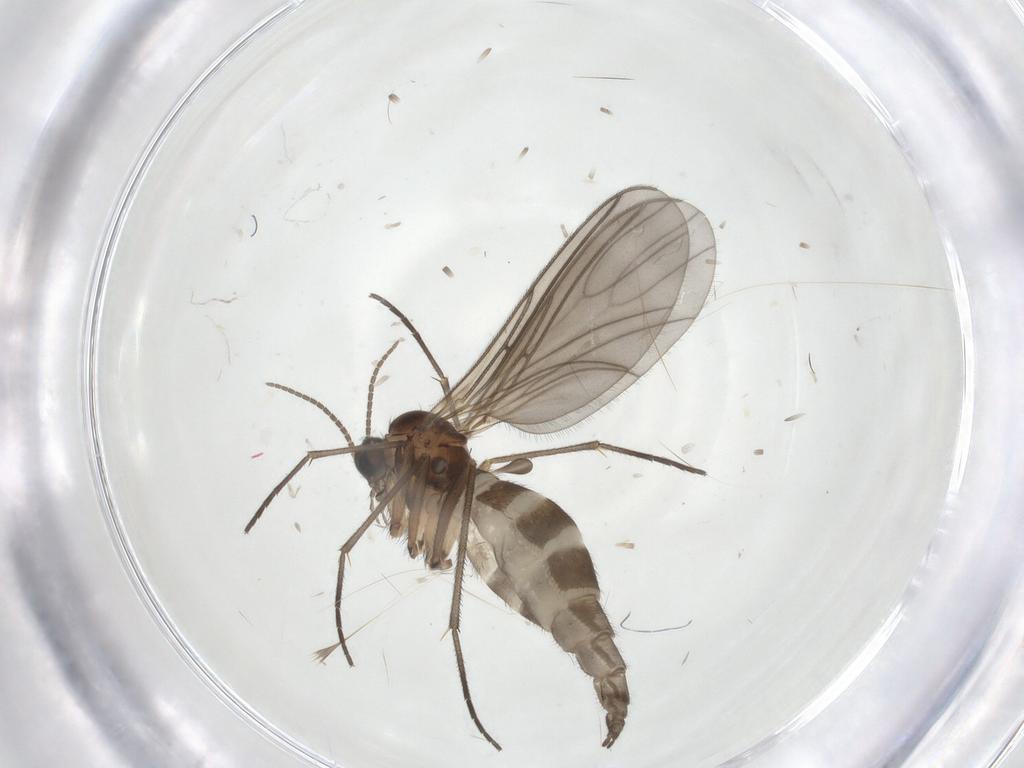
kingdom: Animalia
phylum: Arthropoda
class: Insecta
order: Diptera
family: Sciaridae
